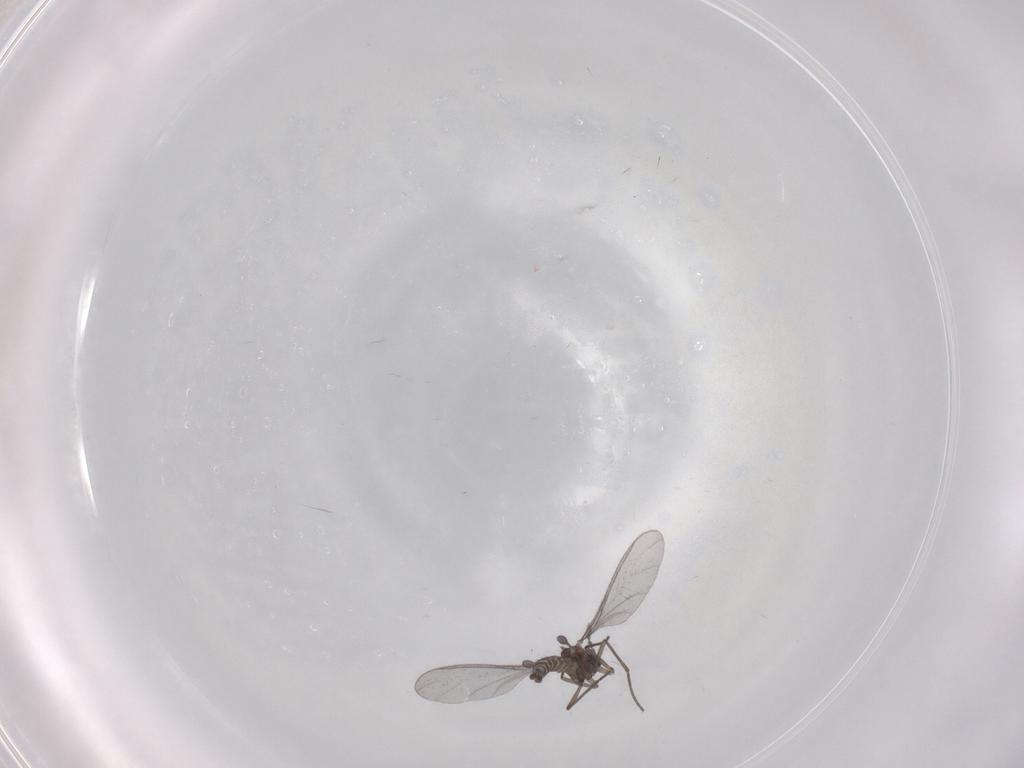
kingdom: Animalia
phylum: Arthropoda
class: Insecta
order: Diptera
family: Sciaridae
